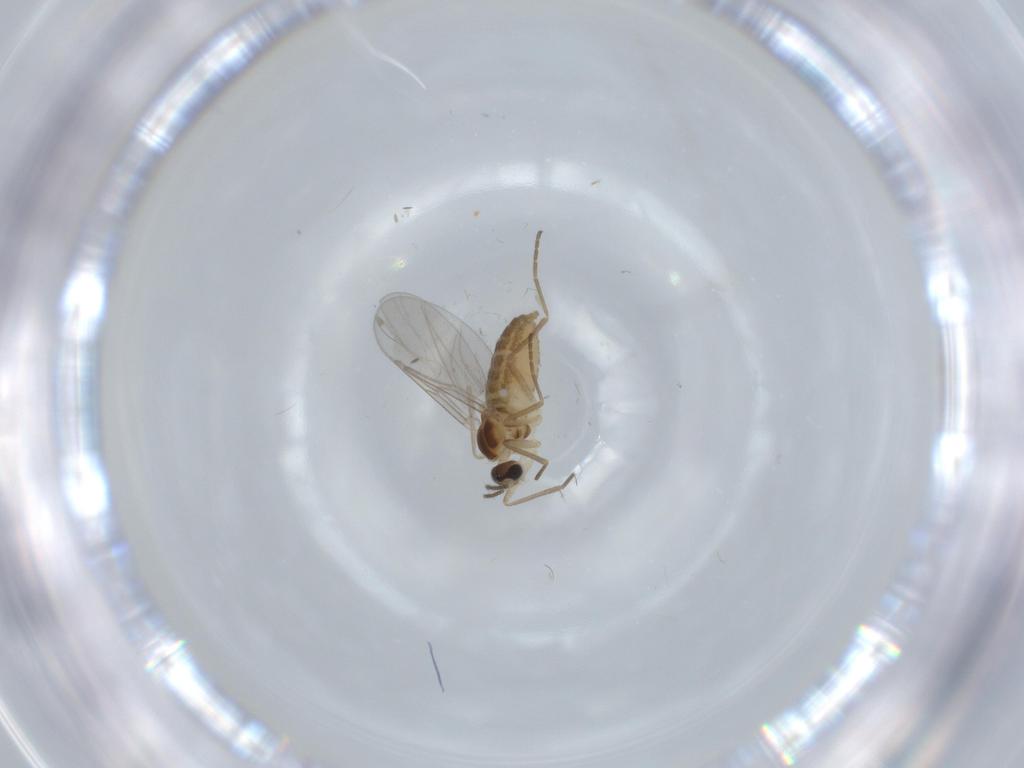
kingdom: Animalia
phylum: Arthropoda
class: Insecta
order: Diptera
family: Cecidomyiidae
